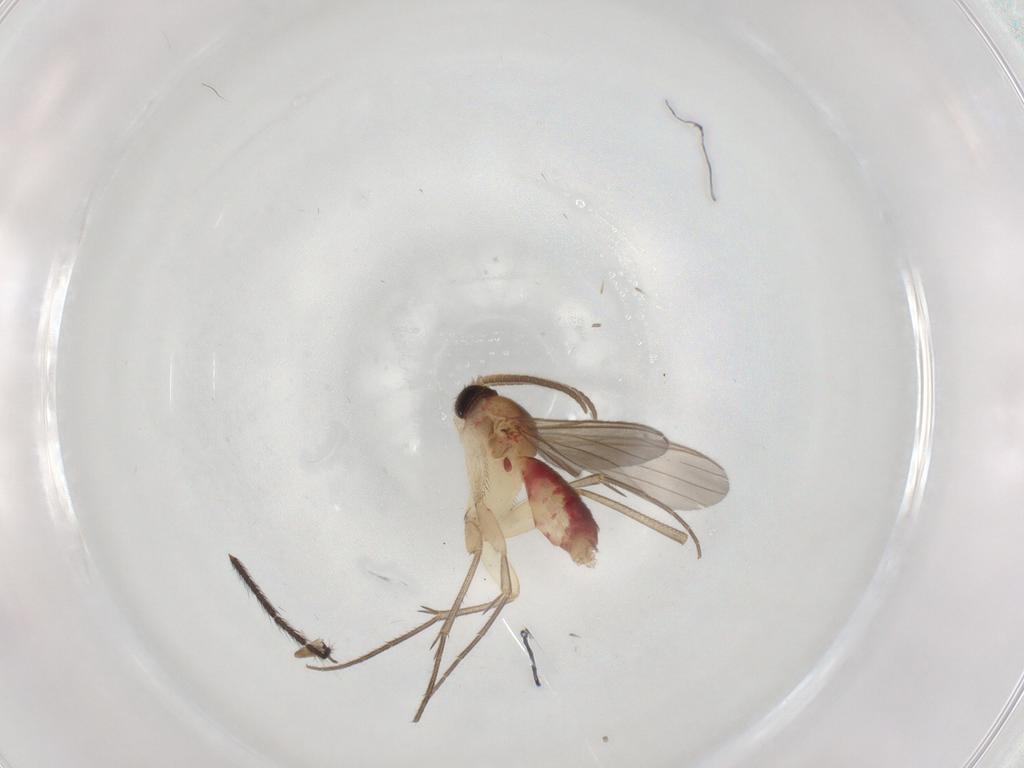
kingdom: Animalia
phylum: Arthropoda
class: Insecta
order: Diptera
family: Mycetophilidae
